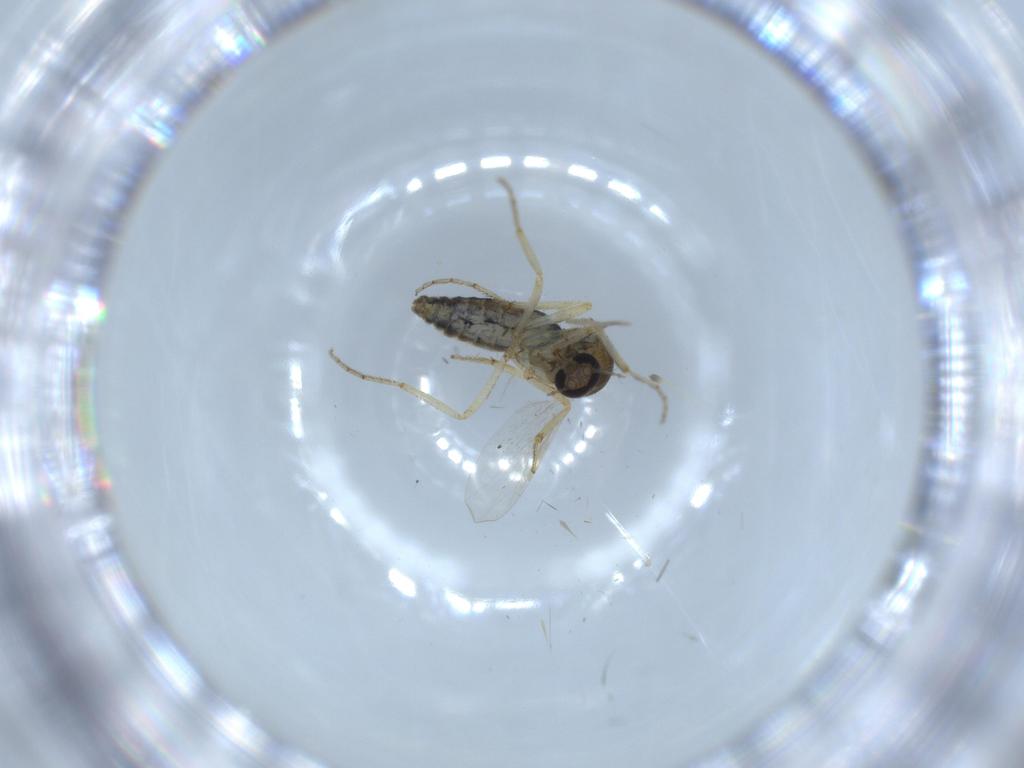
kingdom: Animalia
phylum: Arthropoda
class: Insecta
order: Diptera
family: Ceratopogonidae
